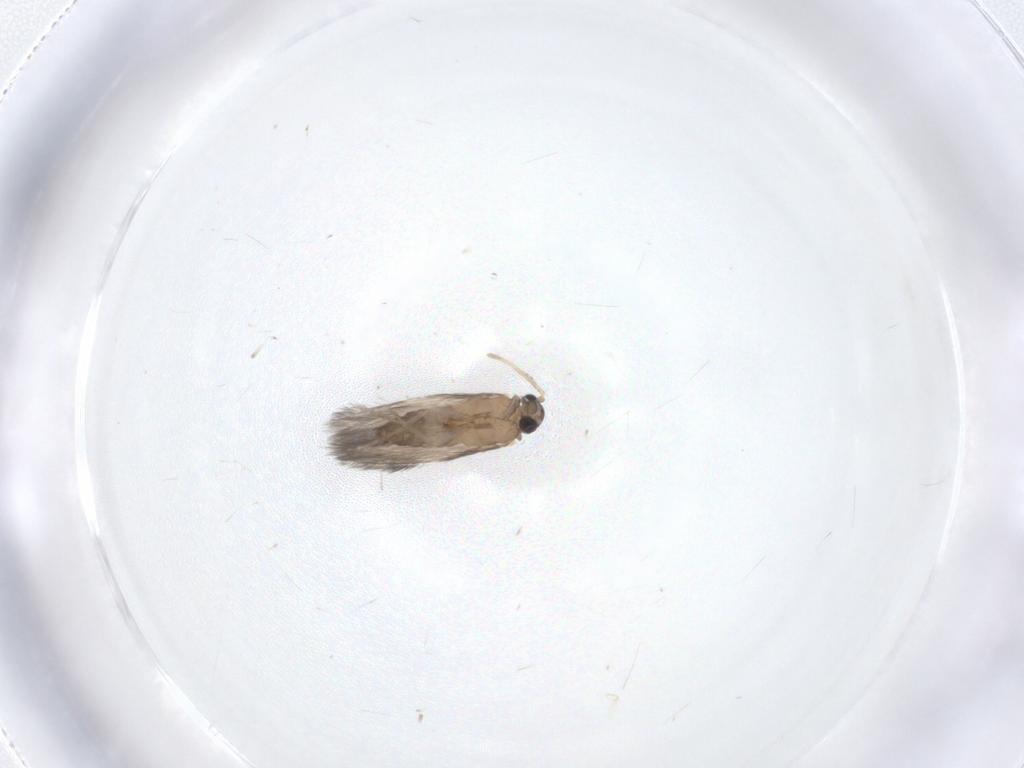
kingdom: Animalia
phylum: Arthropoda
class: Insecta
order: Trichoptera
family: Hydroptilidae
